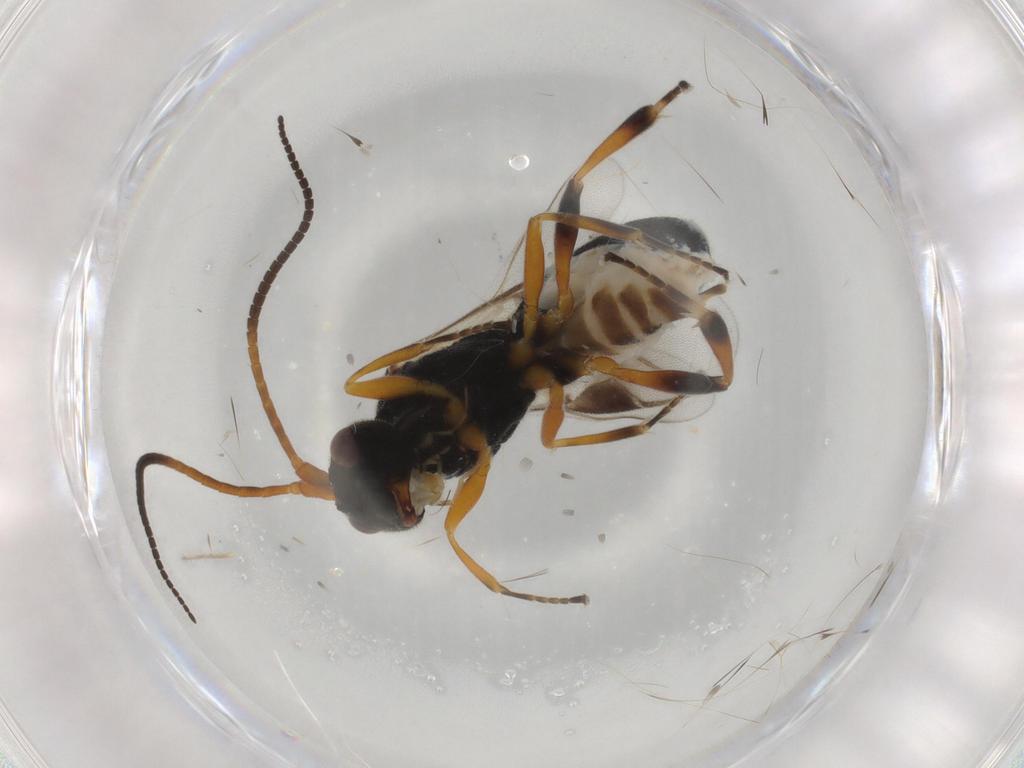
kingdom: Animalia
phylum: Arthropoda
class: Insecta
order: Hymenoptera
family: Braconidae
